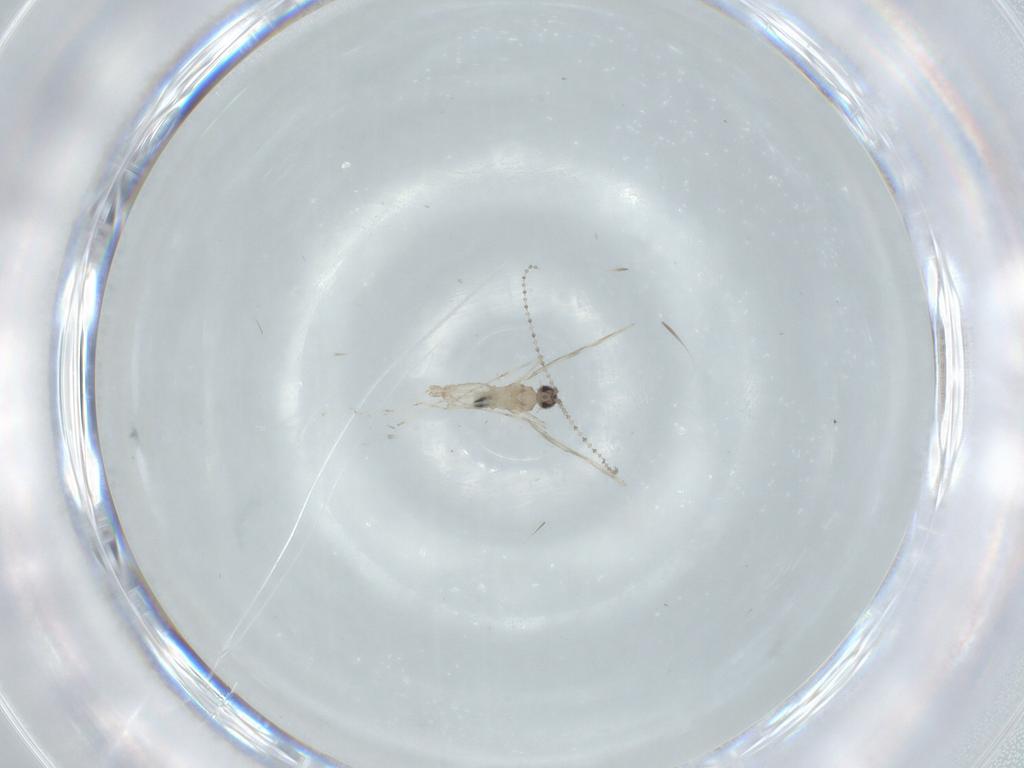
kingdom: Animalia
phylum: Arthropoda
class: Insecta
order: Diptera
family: Cecidomyiidae
